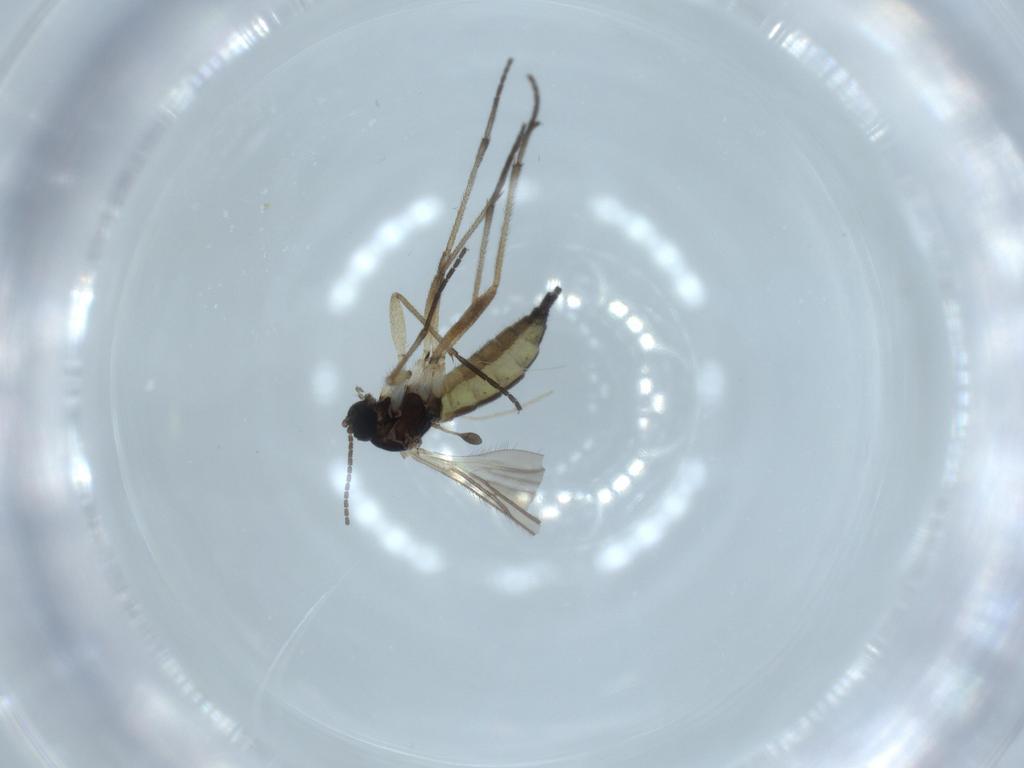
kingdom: Animalia
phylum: Arthropoda
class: Insecta
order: Diptera
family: Sciaridae
